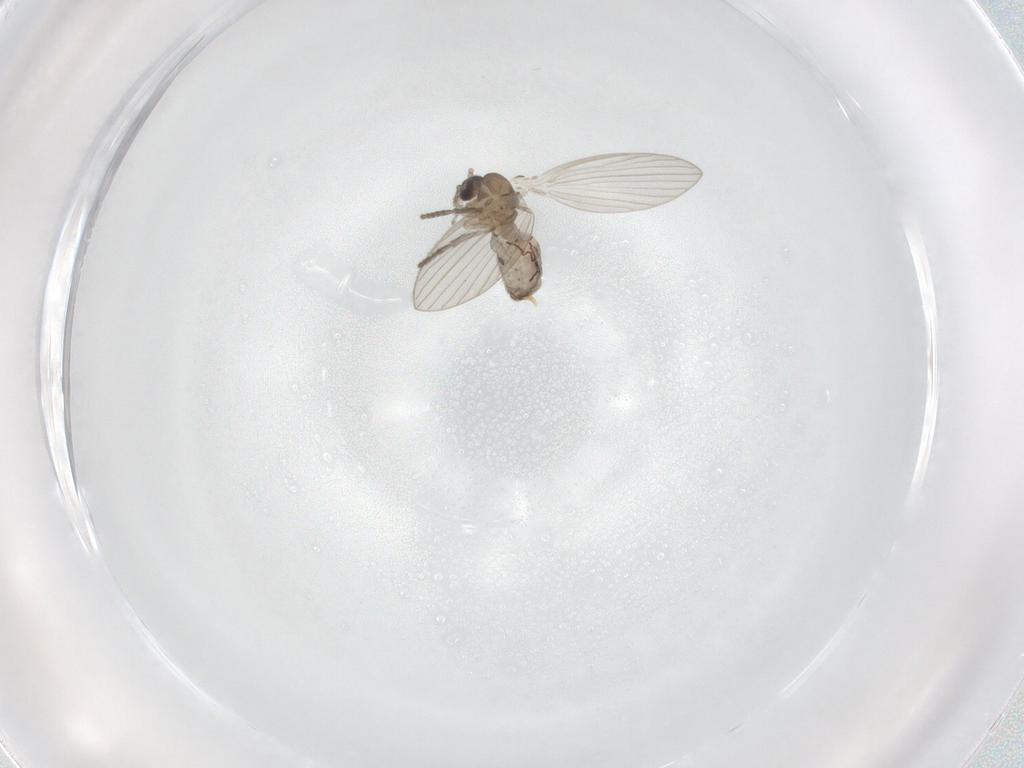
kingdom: Animalia
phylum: Arthropoda
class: Insecta
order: Diptera
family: Psychodidae
